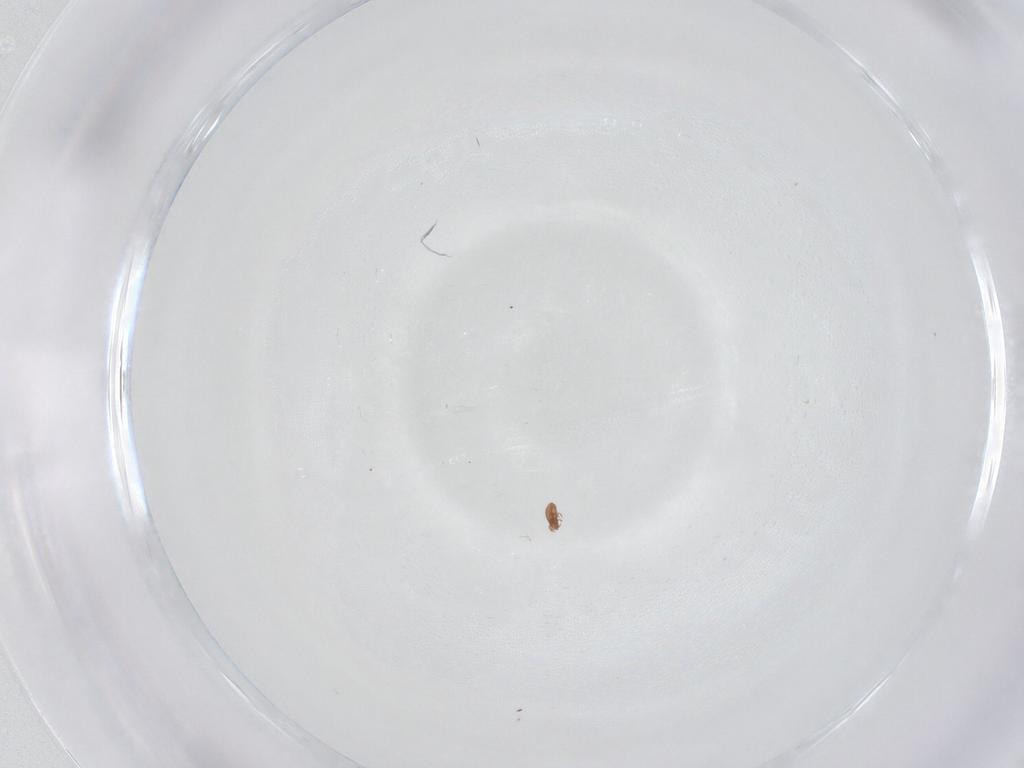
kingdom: Animalia
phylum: Arthropoda
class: Arachnida
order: Sarcoptiformes
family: Oppiidae
